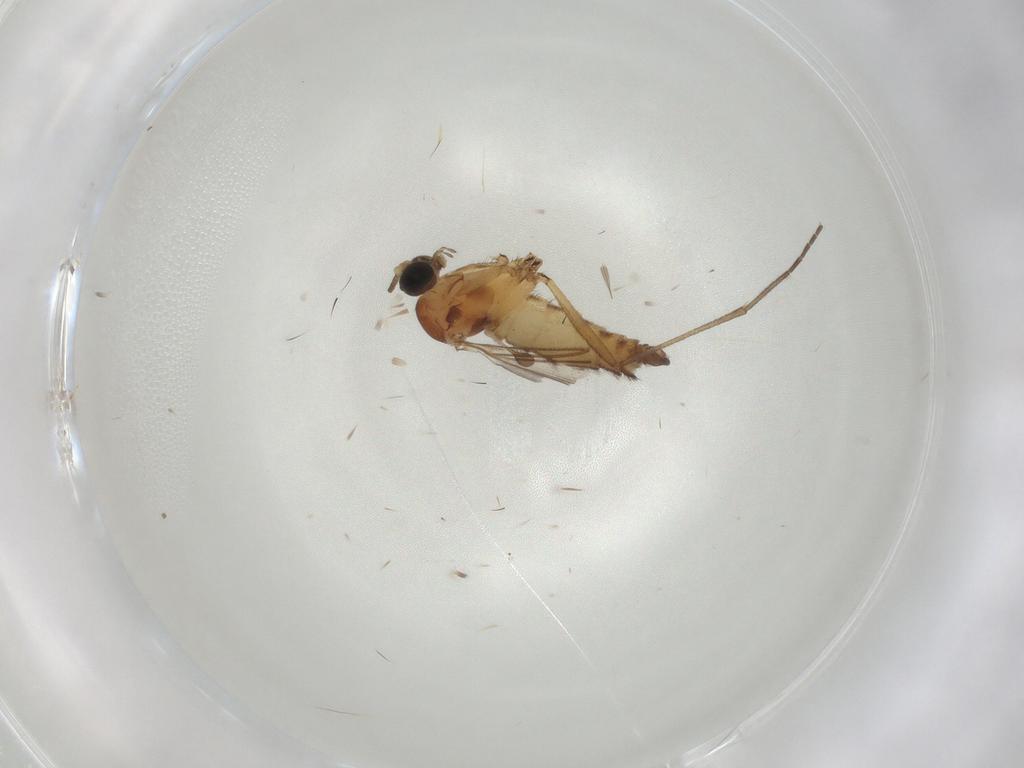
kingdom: Animalia
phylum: Arthropoda
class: Insecta
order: Diptera
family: Sciaridae
